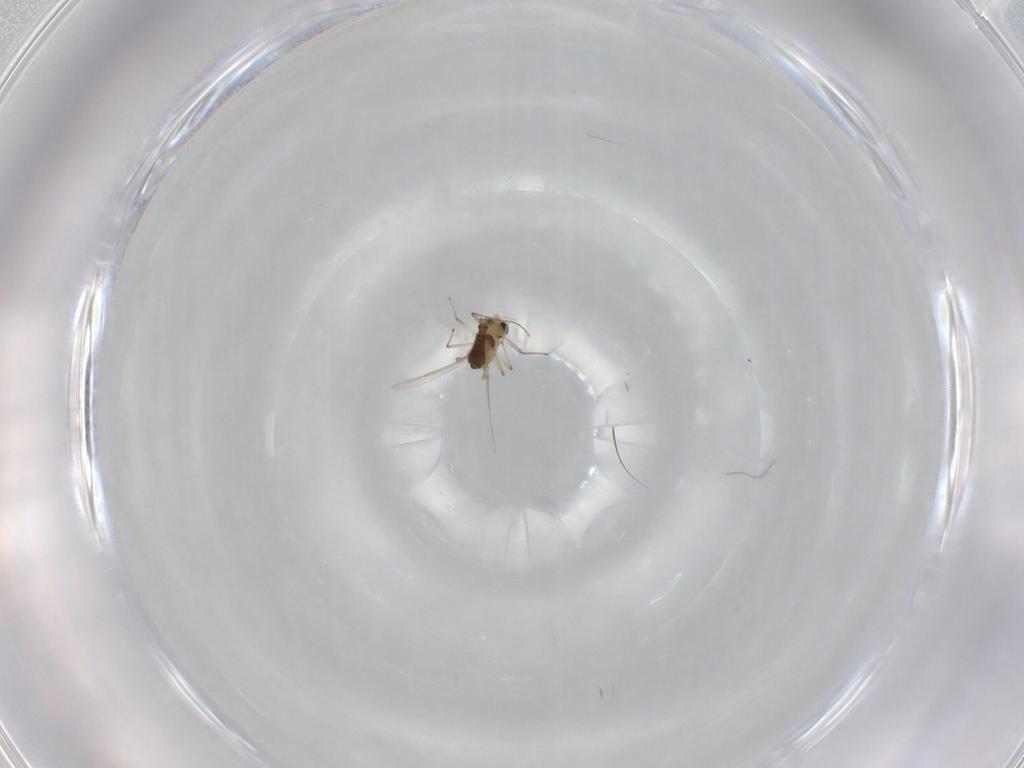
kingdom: Animalia
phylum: Arthropoda
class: Insecta
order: Diptera
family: Chironomidae
